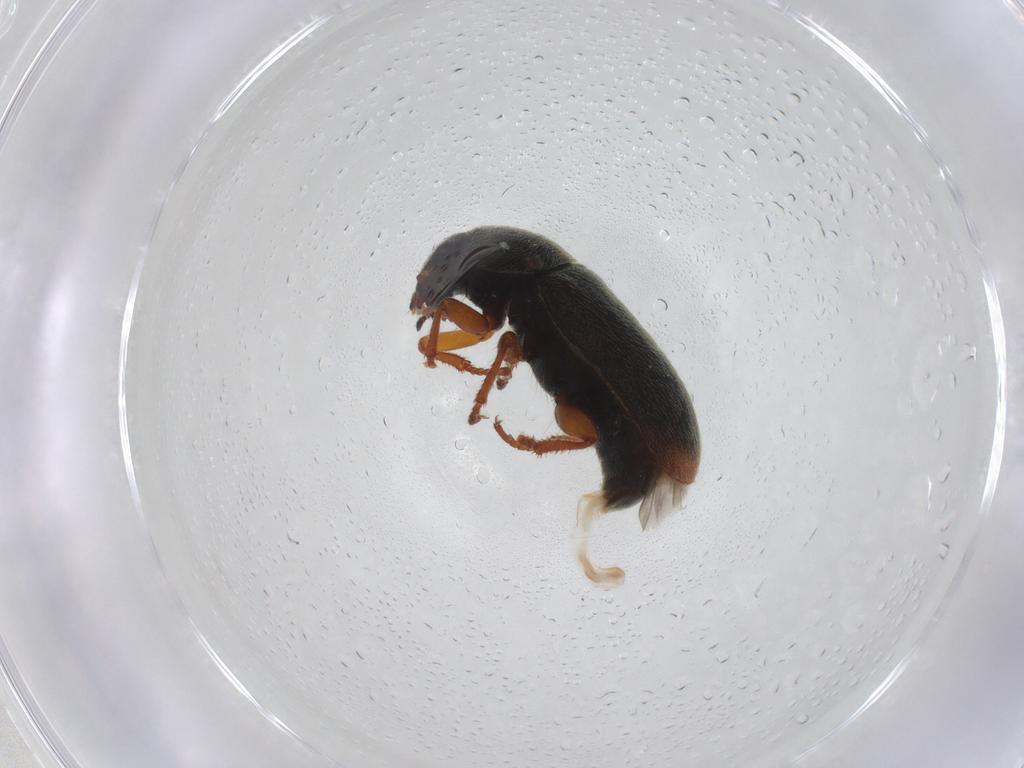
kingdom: Animalia
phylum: Arthropoda
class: Insecta
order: Coleoptera
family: Melyridae
